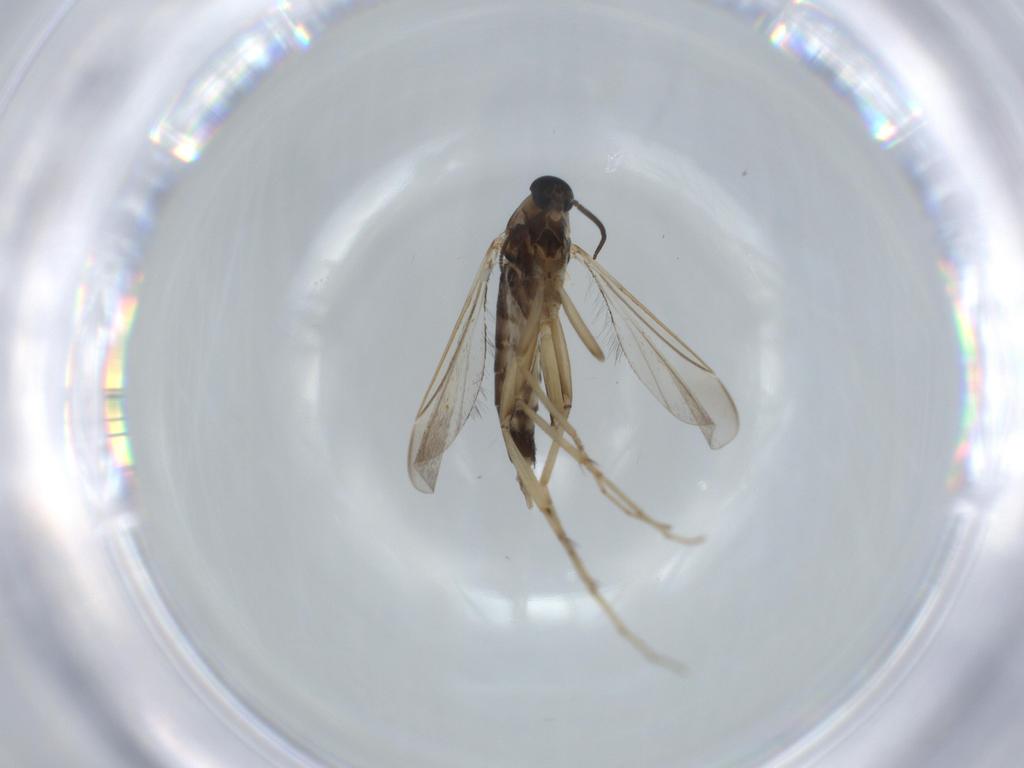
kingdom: Animalia
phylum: Arthropoda
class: Insecta
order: Diptera
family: Cecidomyiidae
